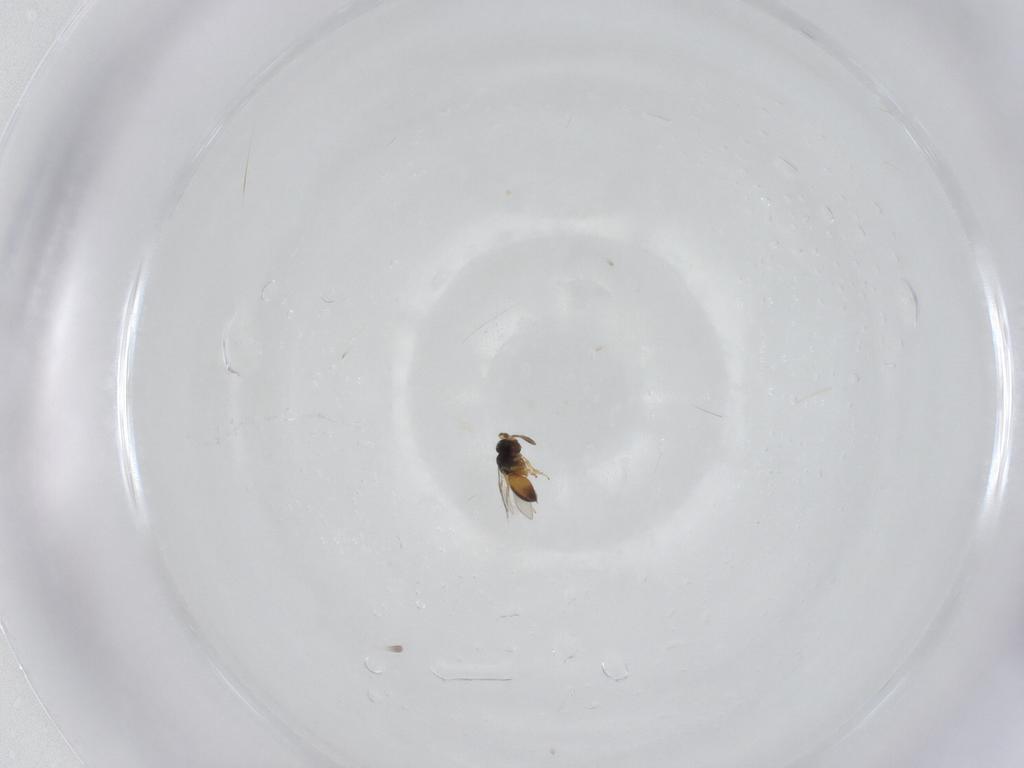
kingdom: Animalia
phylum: Arthropoda
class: Insecta
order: Hymenoptera
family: Scelionidae
